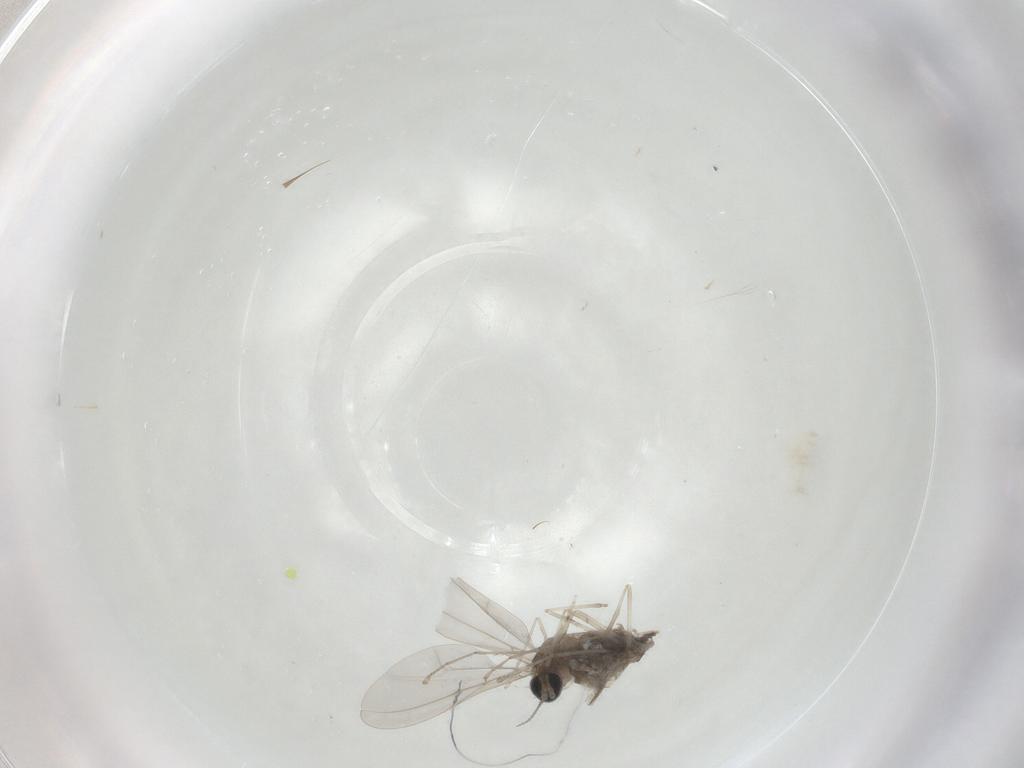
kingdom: Animalia
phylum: Arthropoda
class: Insecta
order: Diptera
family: Cecidomyiidae
